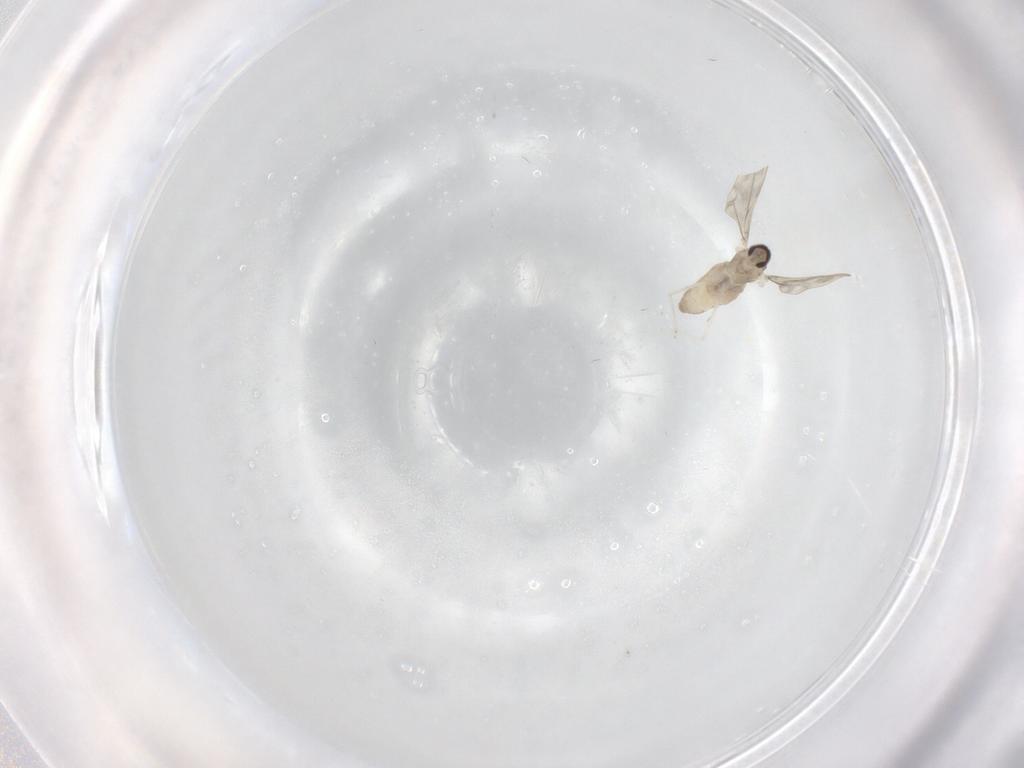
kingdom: Animalia
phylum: Arthropoda
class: Insecta
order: Diptera
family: Cecidomyiidae
